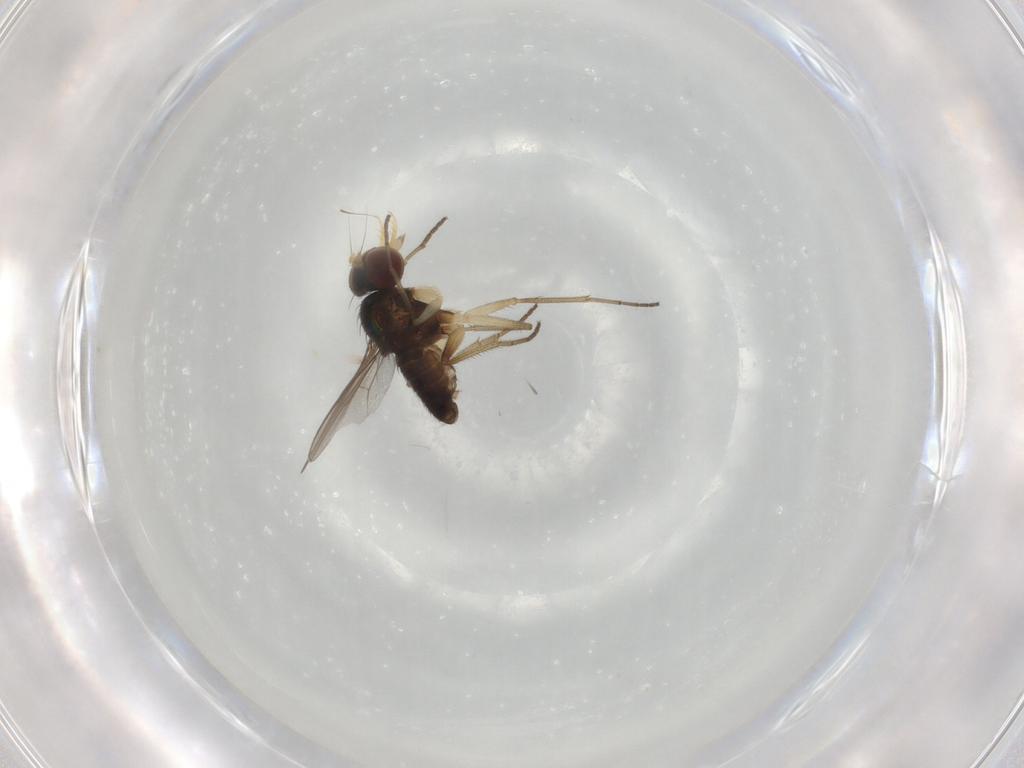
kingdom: Animalia
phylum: Arthropoda
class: Insecta
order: Diptera
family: Dolichopodidae
